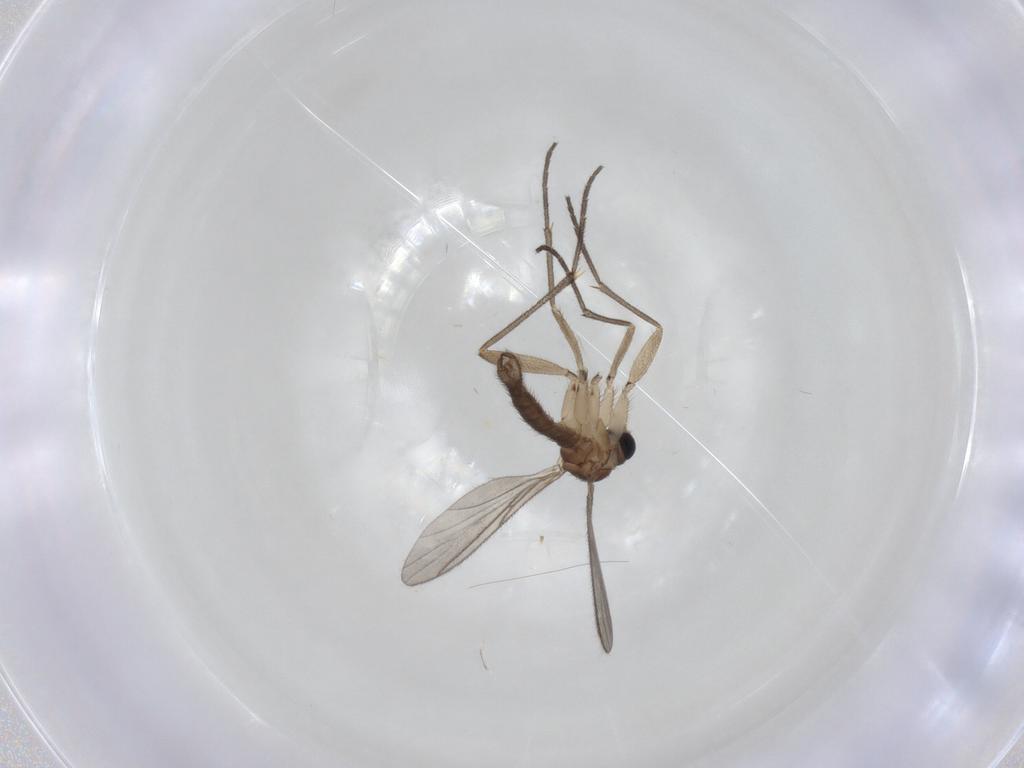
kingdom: Animalia
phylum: Arthropoda
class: Insecta
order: Diptera
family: Sciaridae
